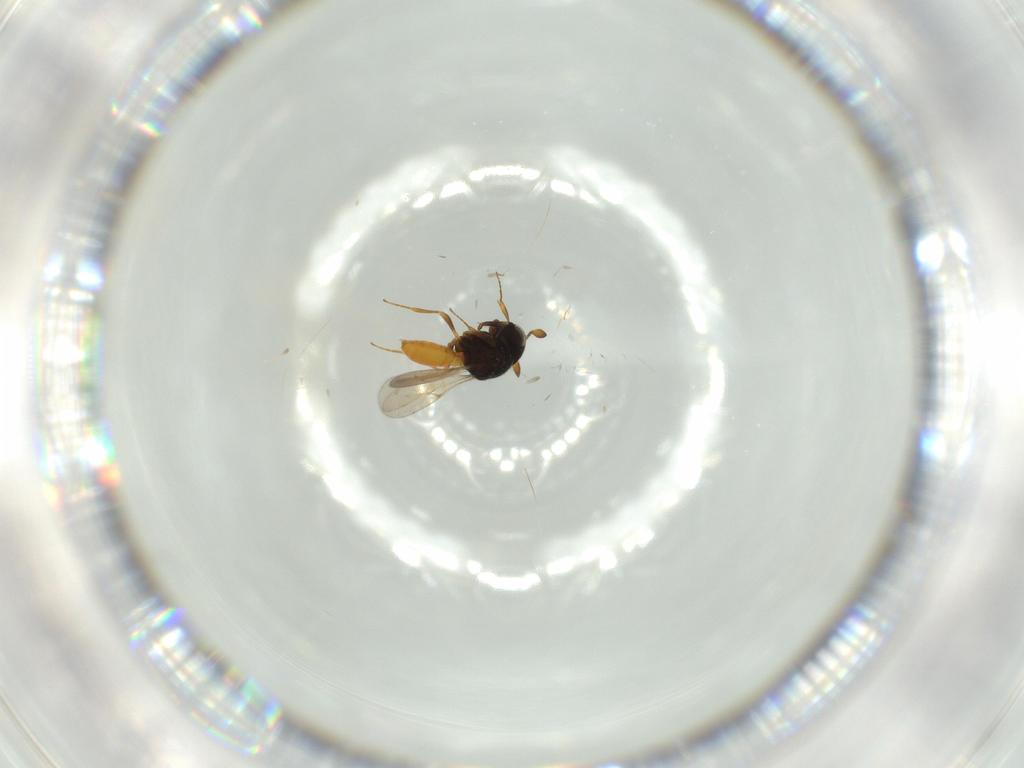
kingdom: Animalia
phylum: Arthropoda
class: Insecta
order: Hymenoptera
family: Scelionidae
